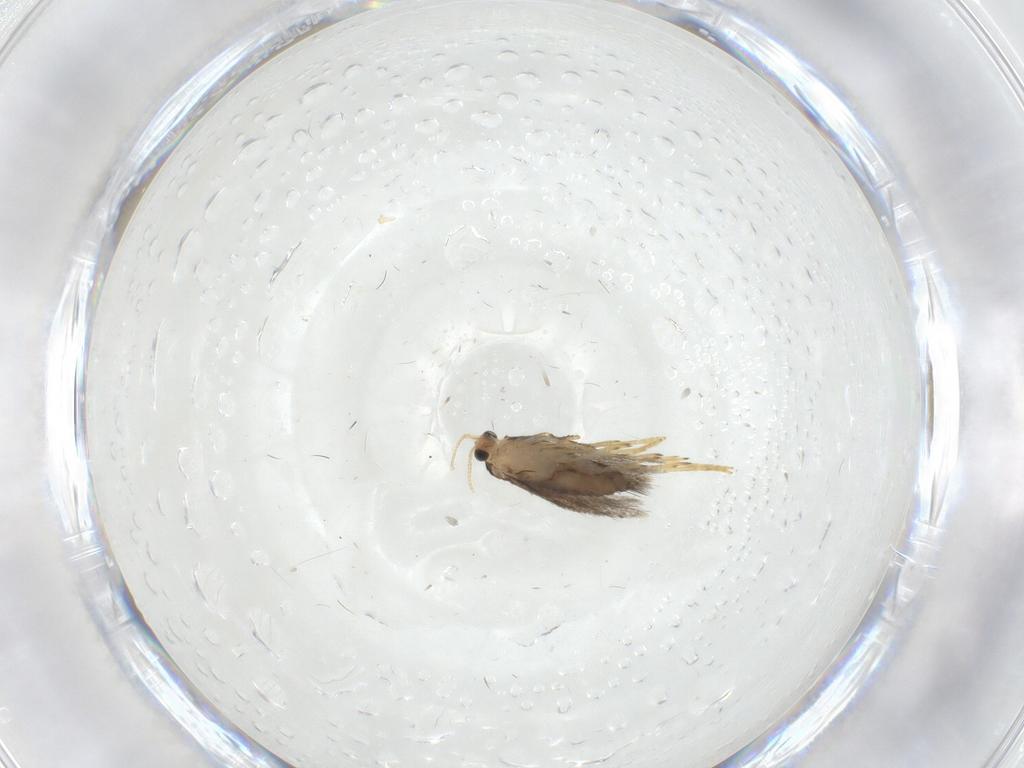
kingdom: Animalia
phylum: Arthropoda
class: Insecta
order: Lepidoptera
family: Nepticulidae
